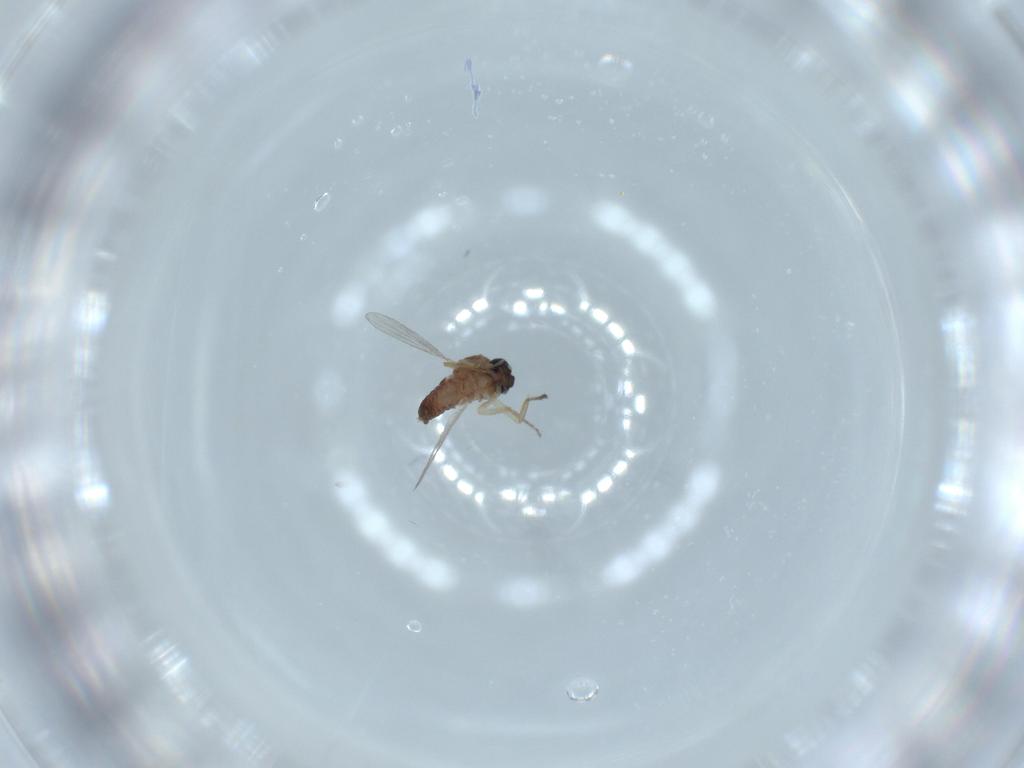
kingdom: Animalia
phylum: Arthropoda
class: Insecta
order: Diptera
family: Ceratopogonidae
